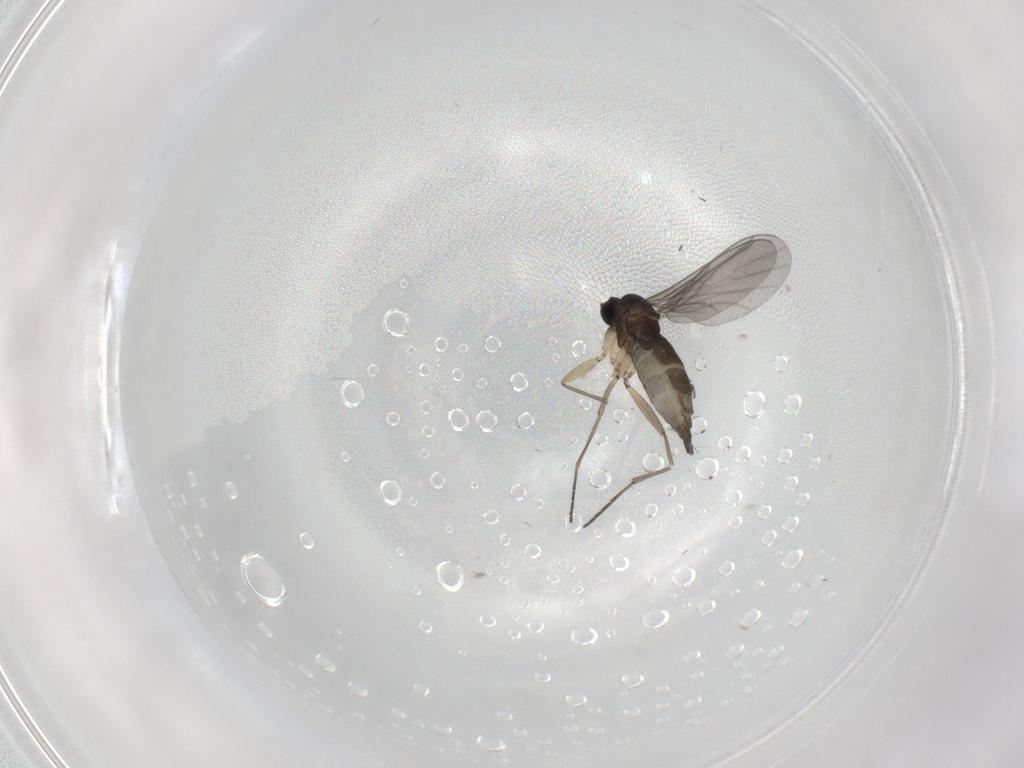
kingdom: Animalia
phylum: Arthropoda
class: Insecta
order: Diptera
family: Sciaridae
